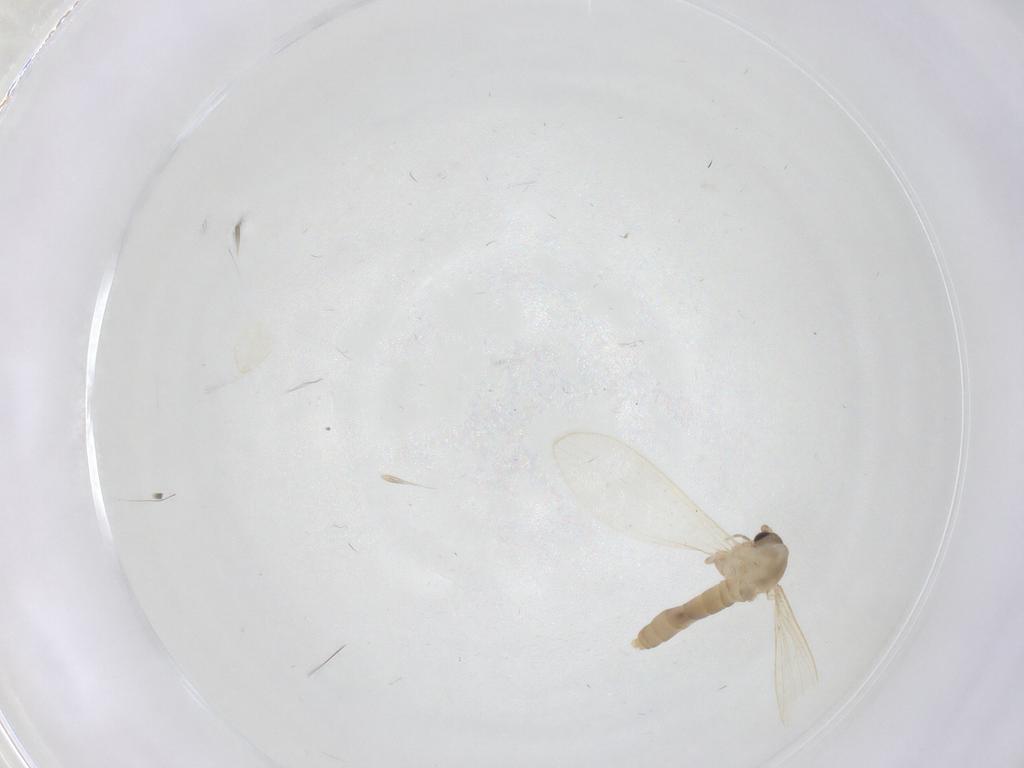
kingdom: Animalia
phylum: Arthropoda
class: Insecta
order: Diptera
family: Psychodidae
